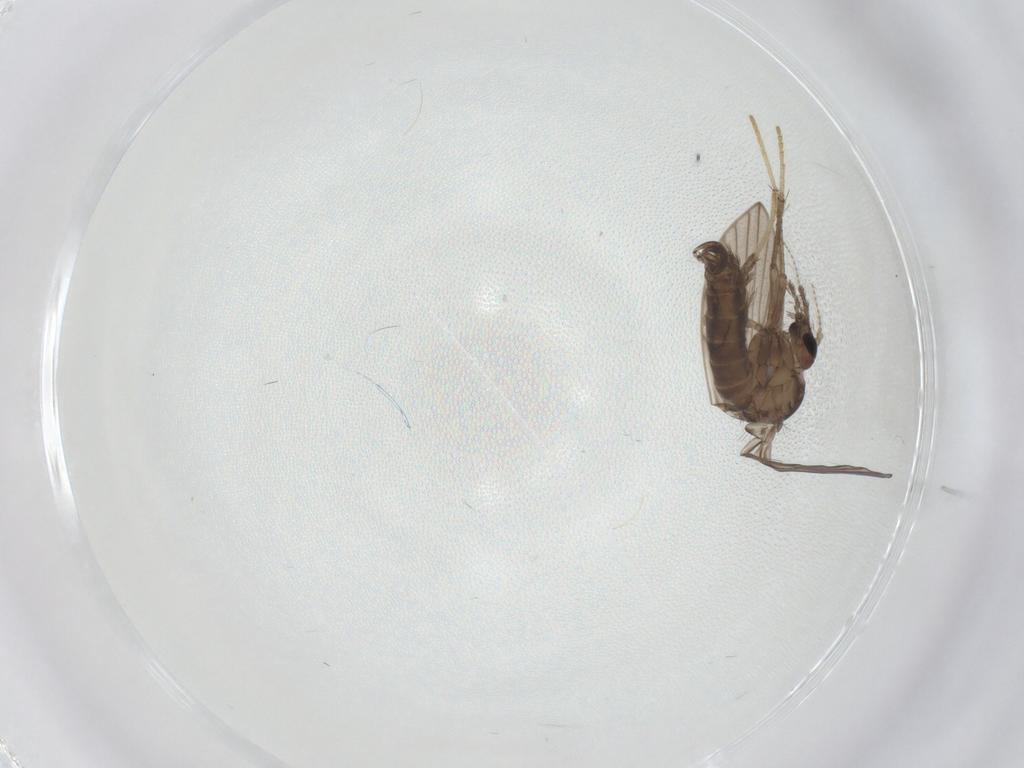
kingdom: Animalia
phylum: Arthropoda
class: Insecta
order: Diptera
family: Psychodidae
